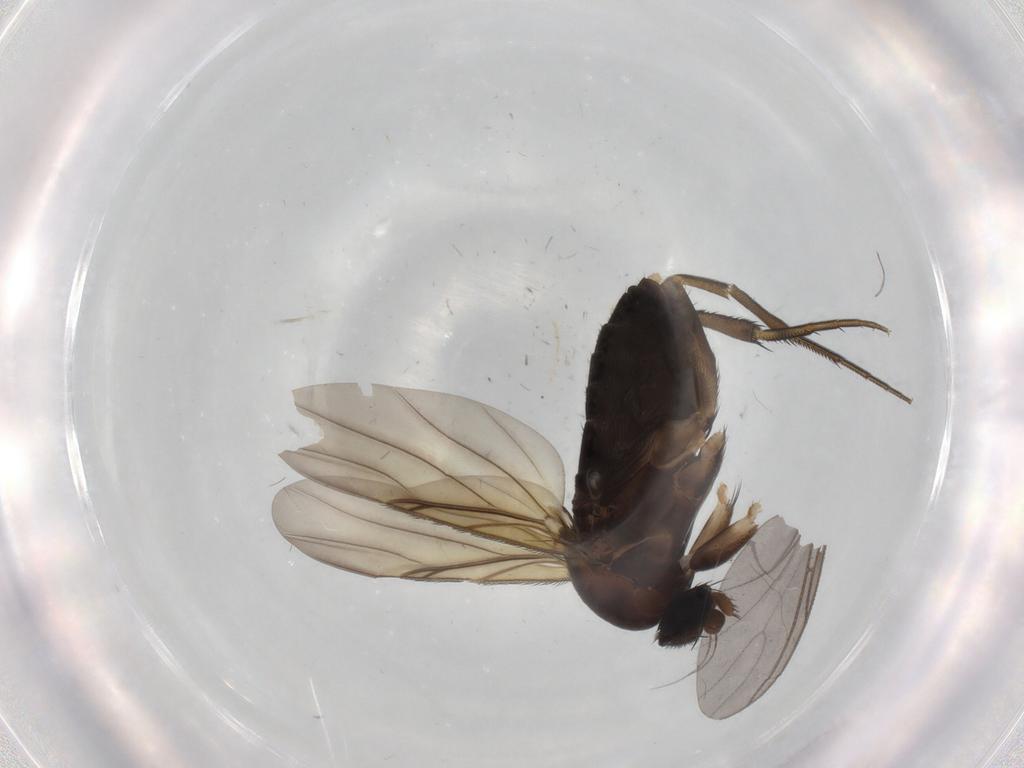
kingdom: Animalia
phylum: Arthropoda
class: Insecta
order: Diptera
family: Phoridae
